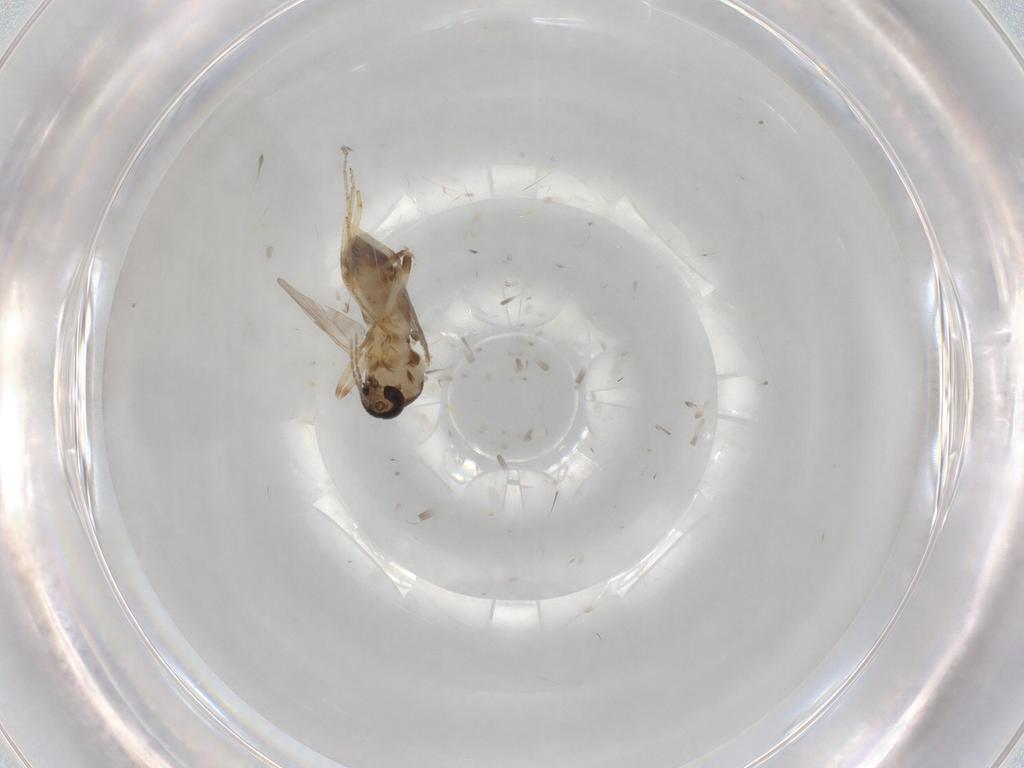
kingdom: Animalia
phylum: Arthropoda
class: Insecta
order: Diptera
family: Ceratopogonidae
